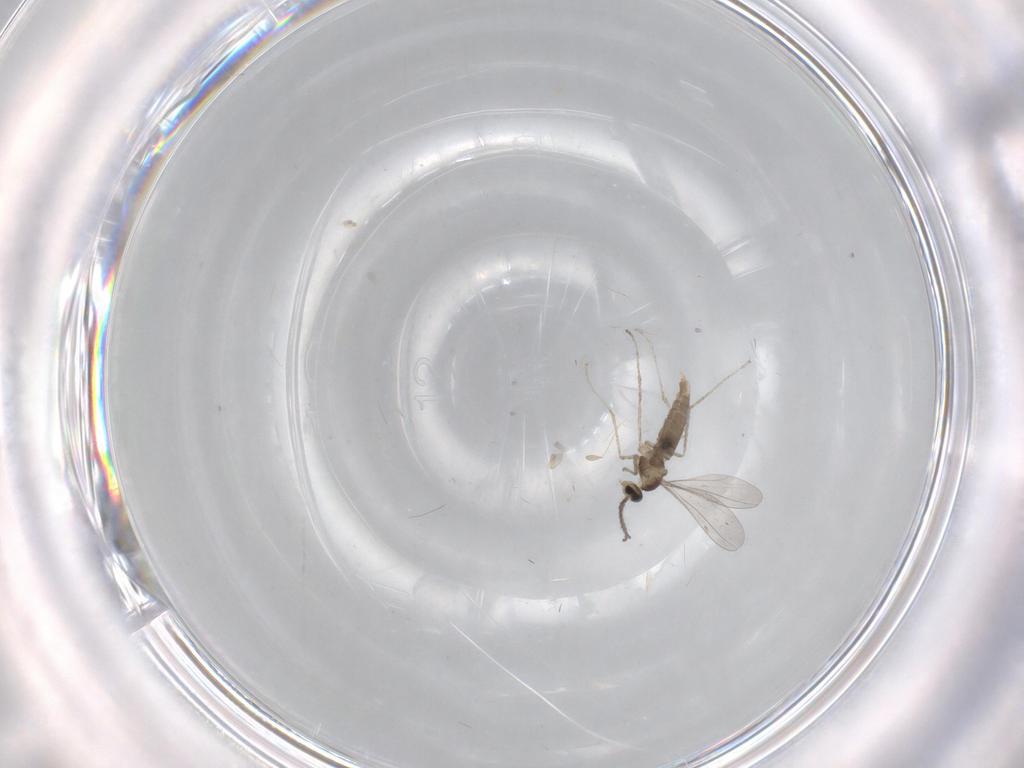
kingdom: Animalia
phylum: Arthropoda
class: Insecta
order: Diptera
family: Chironomidae
